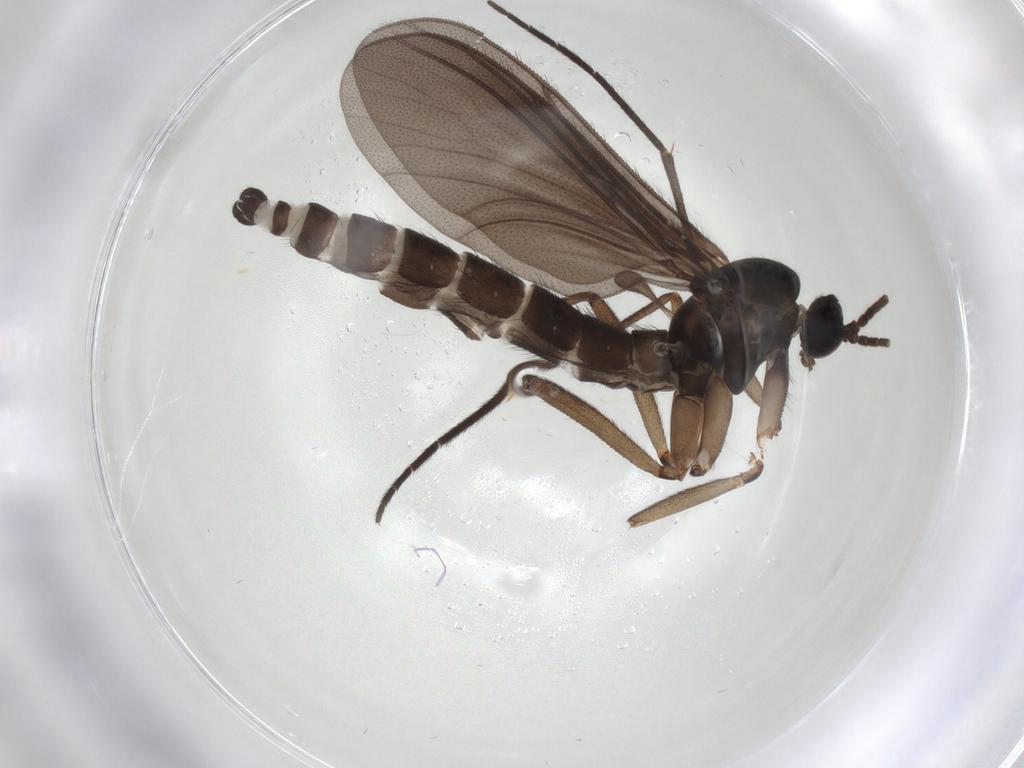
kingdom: Animalia
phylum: Arthropoda
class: Insecta
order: Diptera
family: Sciaridae
